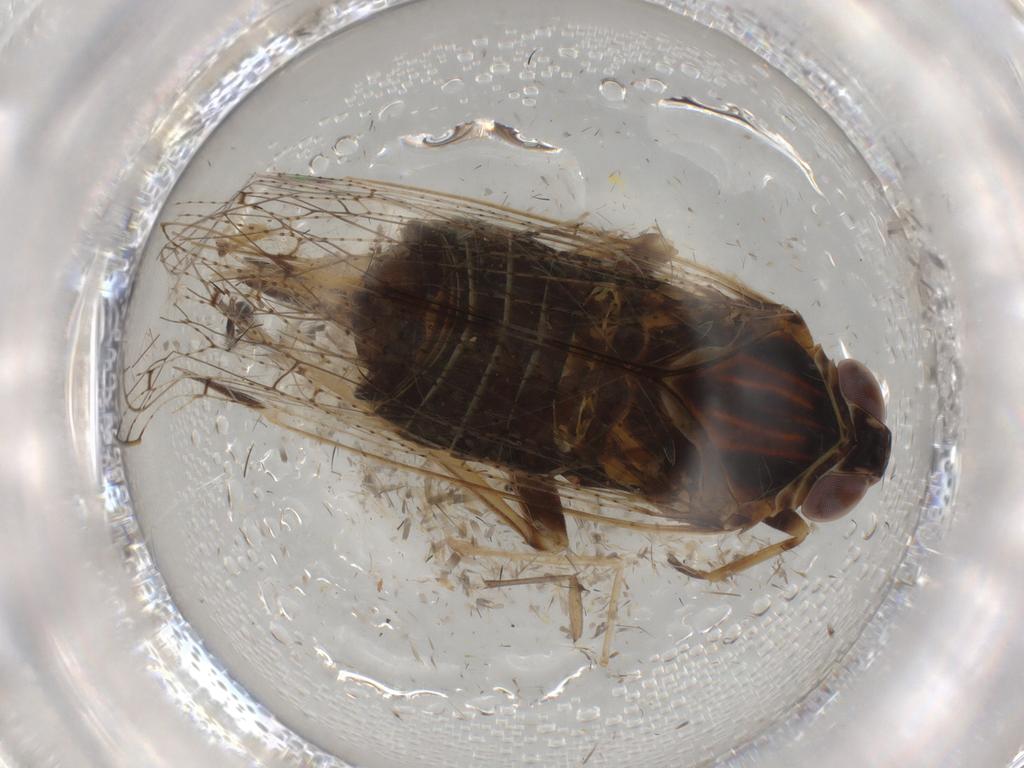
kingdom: Animalia
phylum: Arthropoda
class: Insecta
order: Hemiptera
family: Cixiidae
